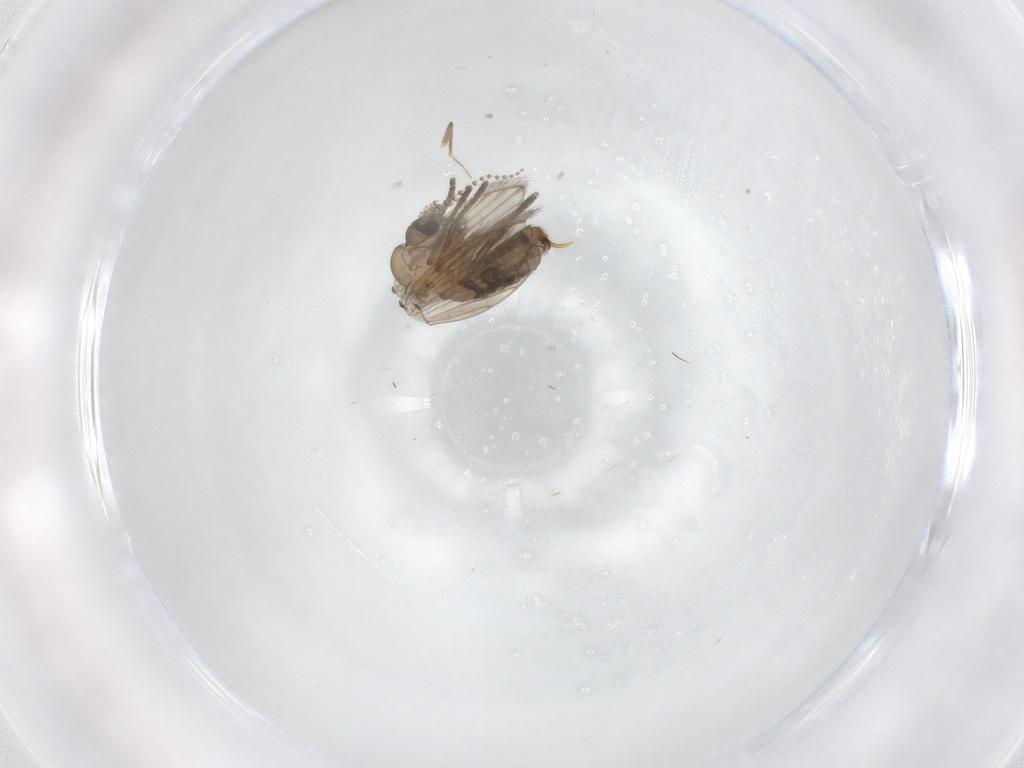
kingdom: Animalia
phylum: Arthropoda
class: Insecta
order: Diptera
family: Psychodidae
